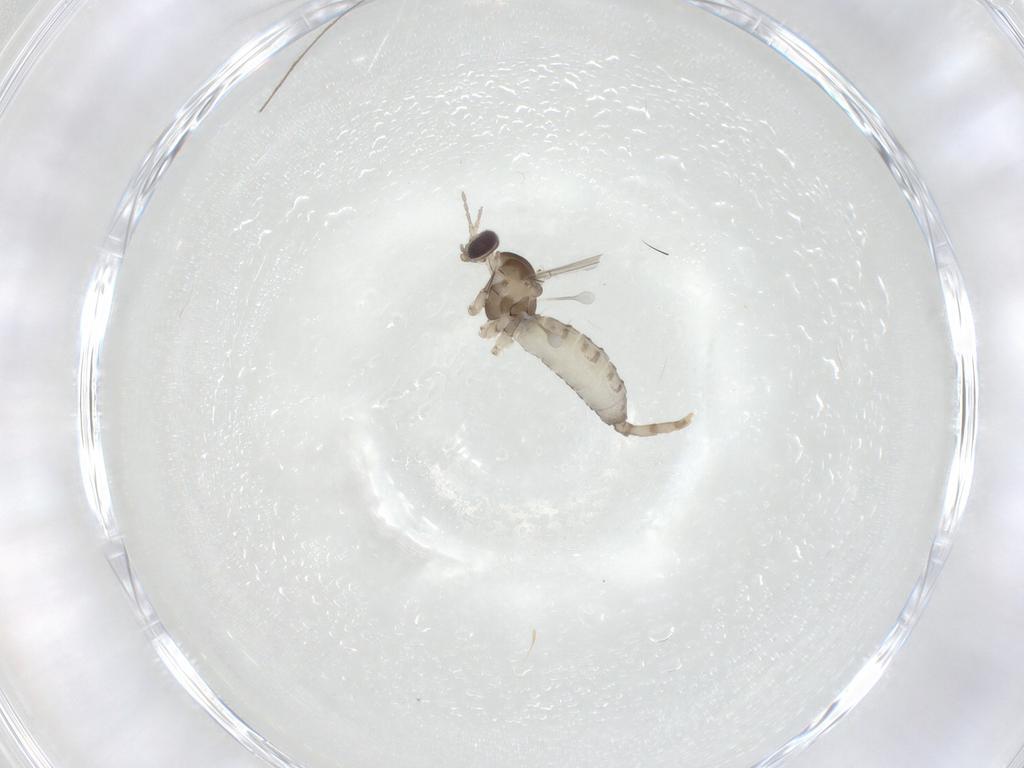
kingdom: Animalia
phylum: Arthropoda
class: Insecta
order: Diptera
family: Cecidomyiidae
